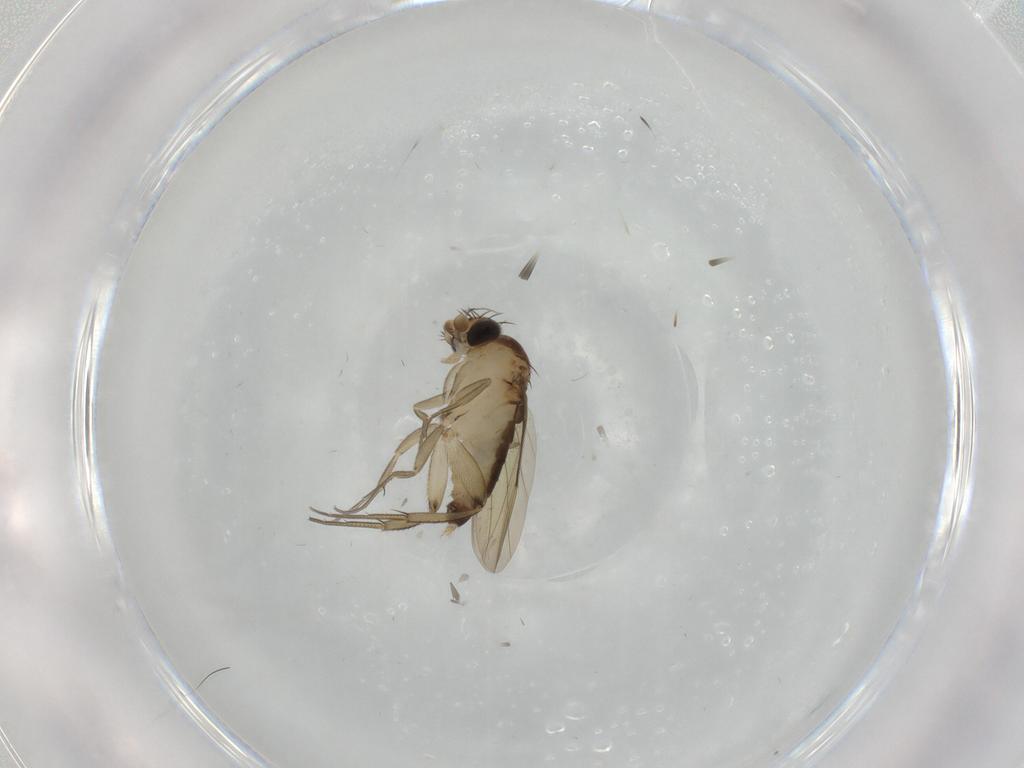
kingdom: Animalia
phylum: Arthropoda
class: Insecta
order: Diptera
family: Phoridae
